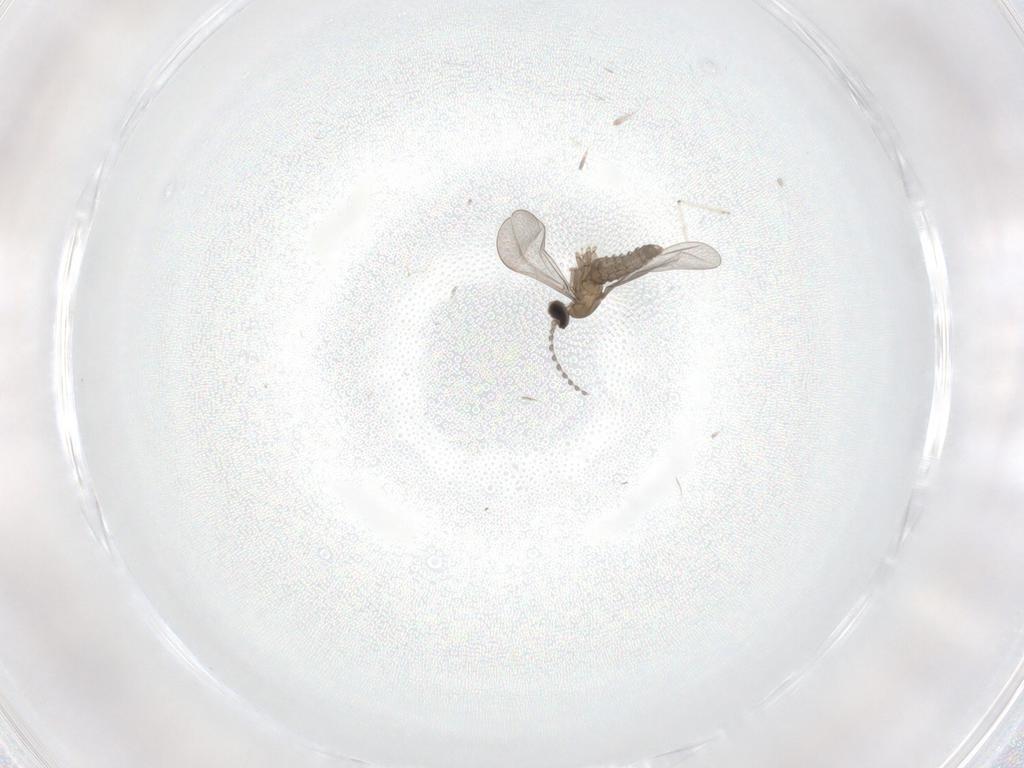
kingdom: Animalia
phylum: Arthropoda
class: Insecta
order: Diptera
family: Cecidomyiidae
